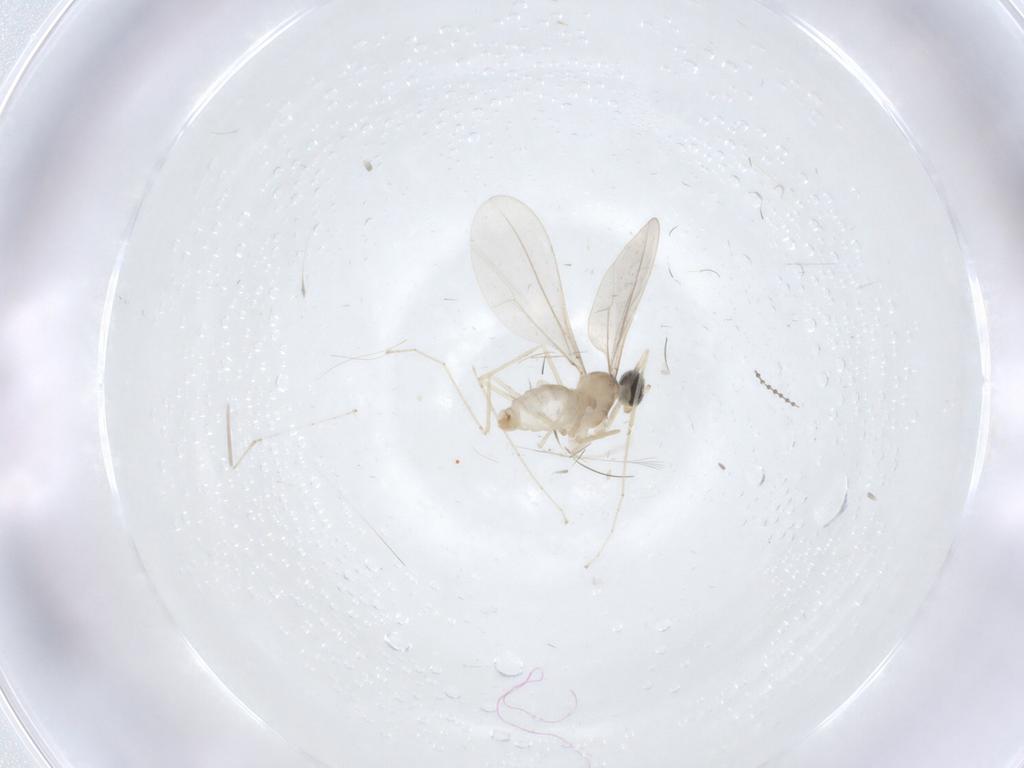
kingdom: Animalia
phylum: Arthropoda
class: Insecta
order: Diptera
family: Cecidomyiidae
